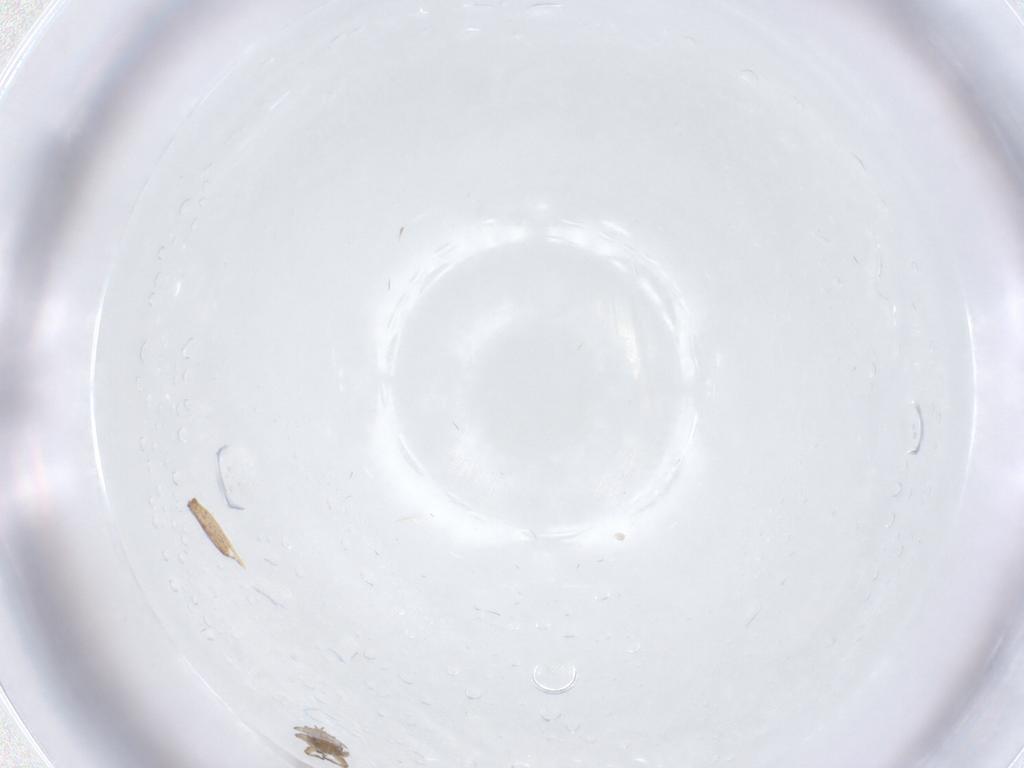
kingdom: Animalia
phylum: Arthropoda
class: Insecta
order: Hemiptera
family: Aphididae
